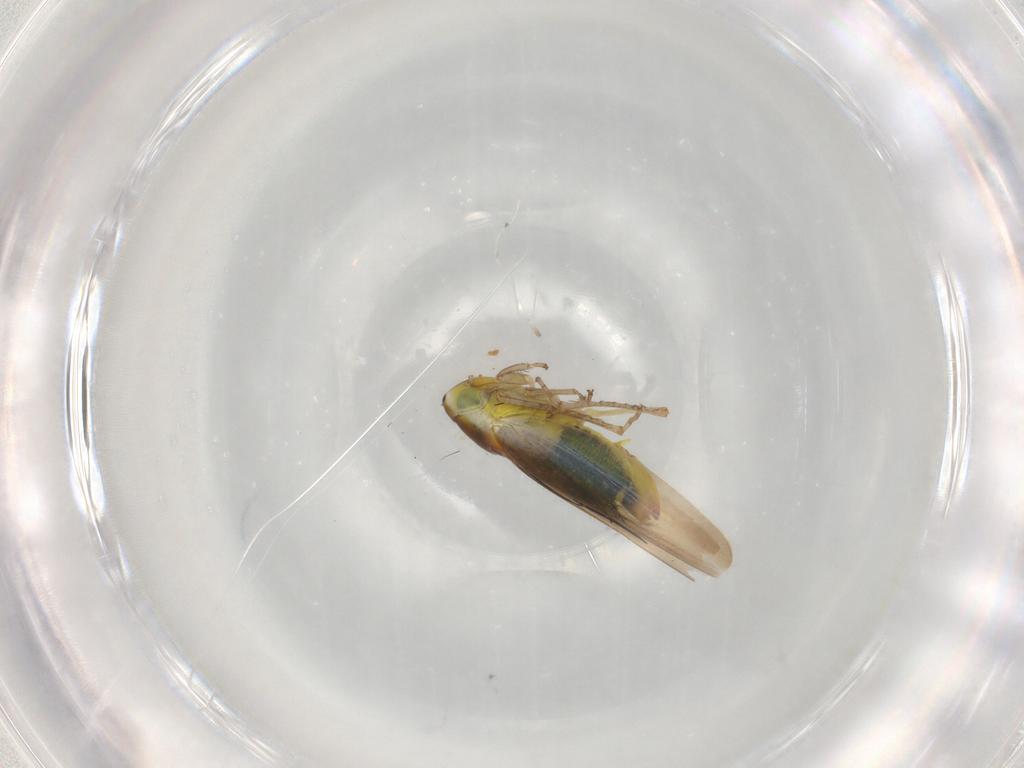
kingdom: Animalia
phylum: Arthropoda
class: Insecta
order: Hemiptera
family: Cicadellidae
